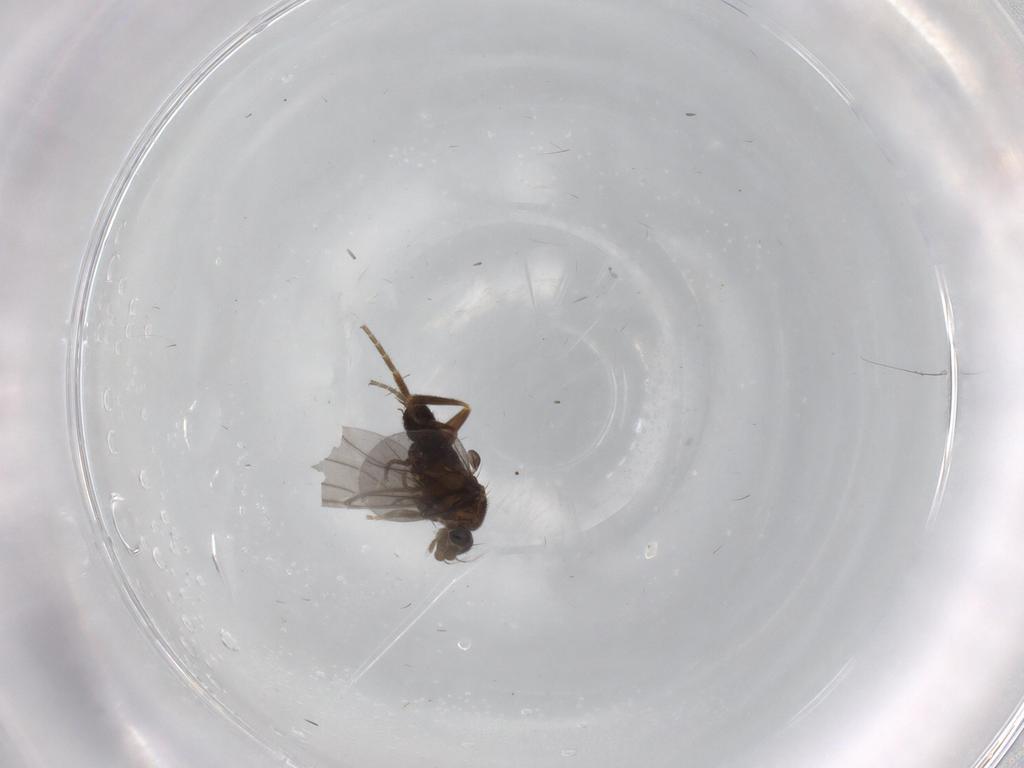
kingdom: Animalia
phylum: Arthropoda
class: Insecta
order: Diptera
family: Phoridae
